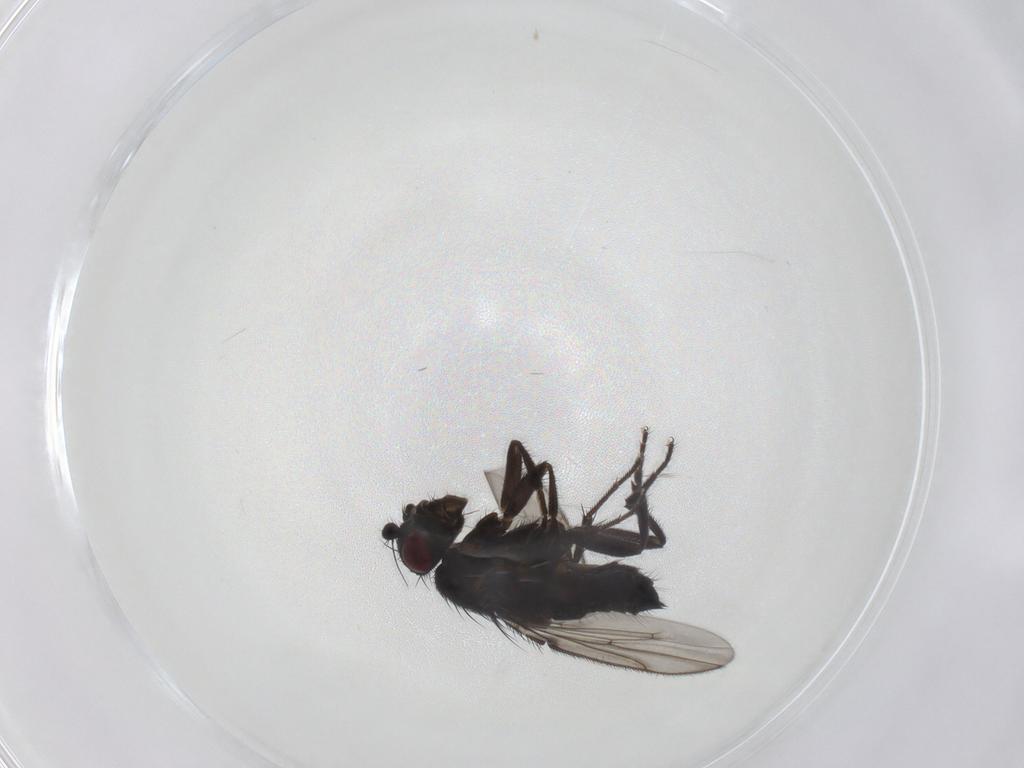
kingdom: Animalia
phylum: Arthropoda
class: Insecta
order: Diptera
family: Sphaeroceridae
